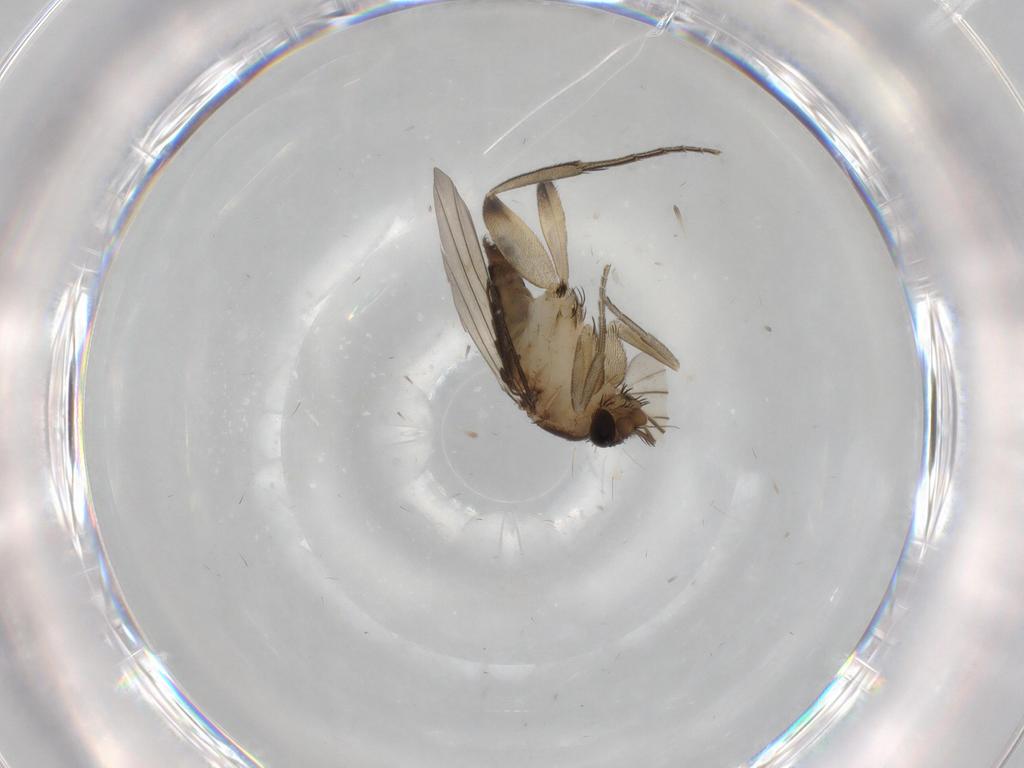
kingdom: Animalia
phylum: Arthropoda
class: Insecta
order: Diptera
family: Phoridae
